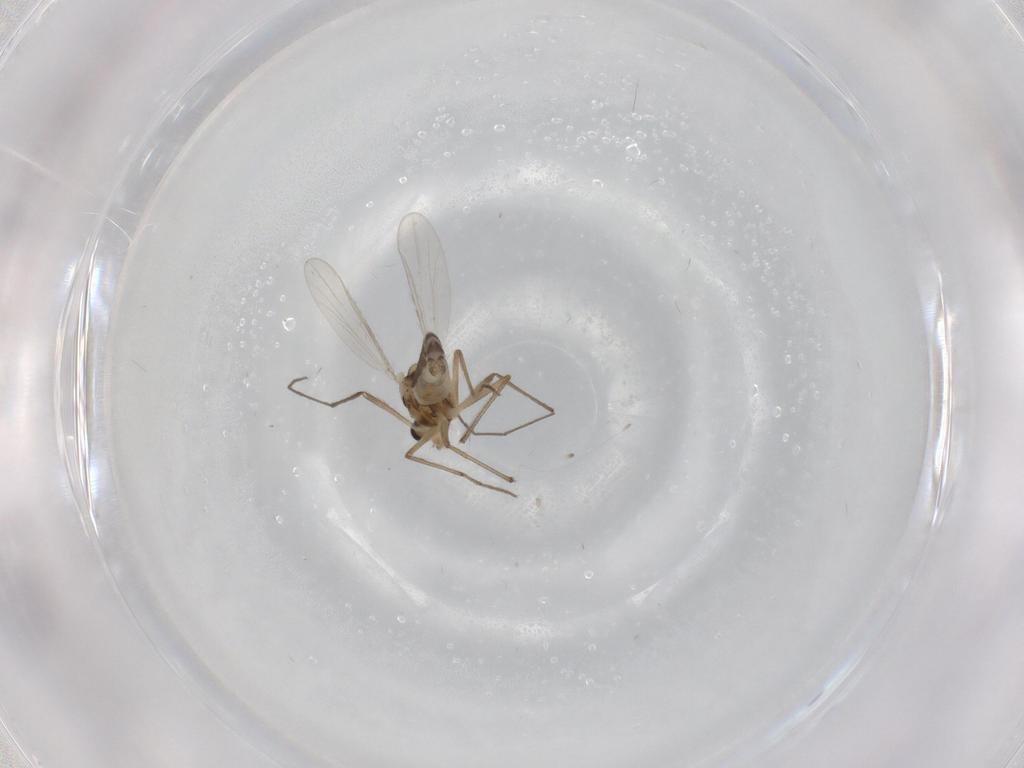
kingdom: Animalia
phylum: Arthropoda
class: Insecta
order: Diptera
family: Chironomidae
